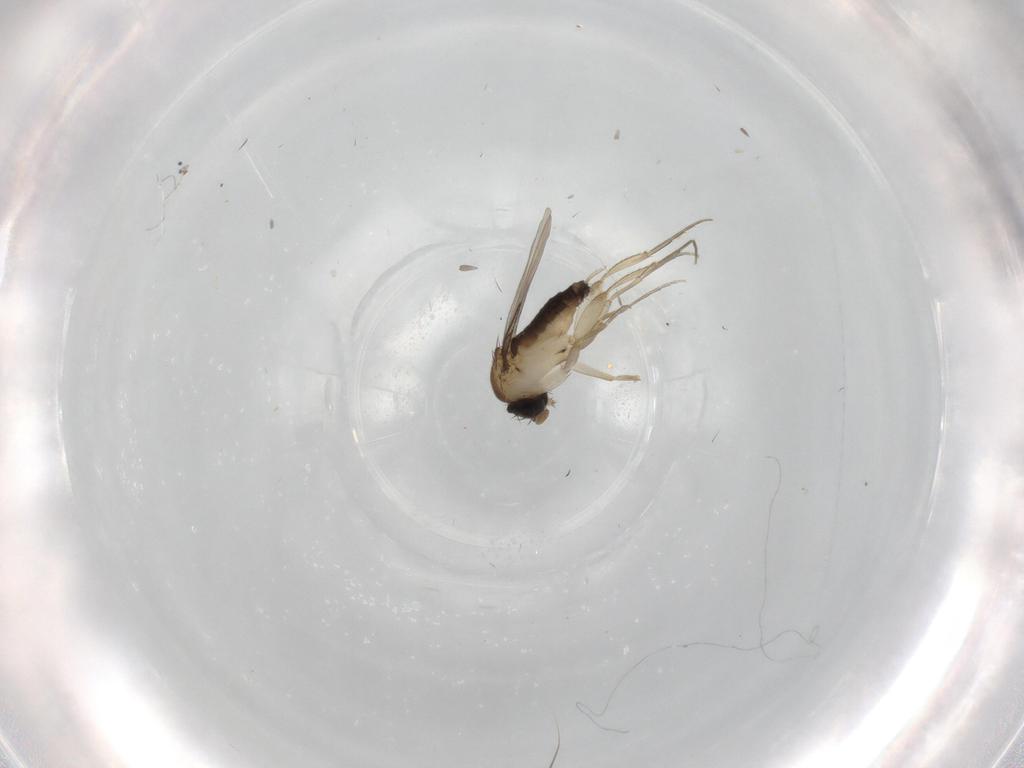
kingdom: Animalia
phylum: Arthropoda
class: Insecta
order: Diptera
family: Phoridae
